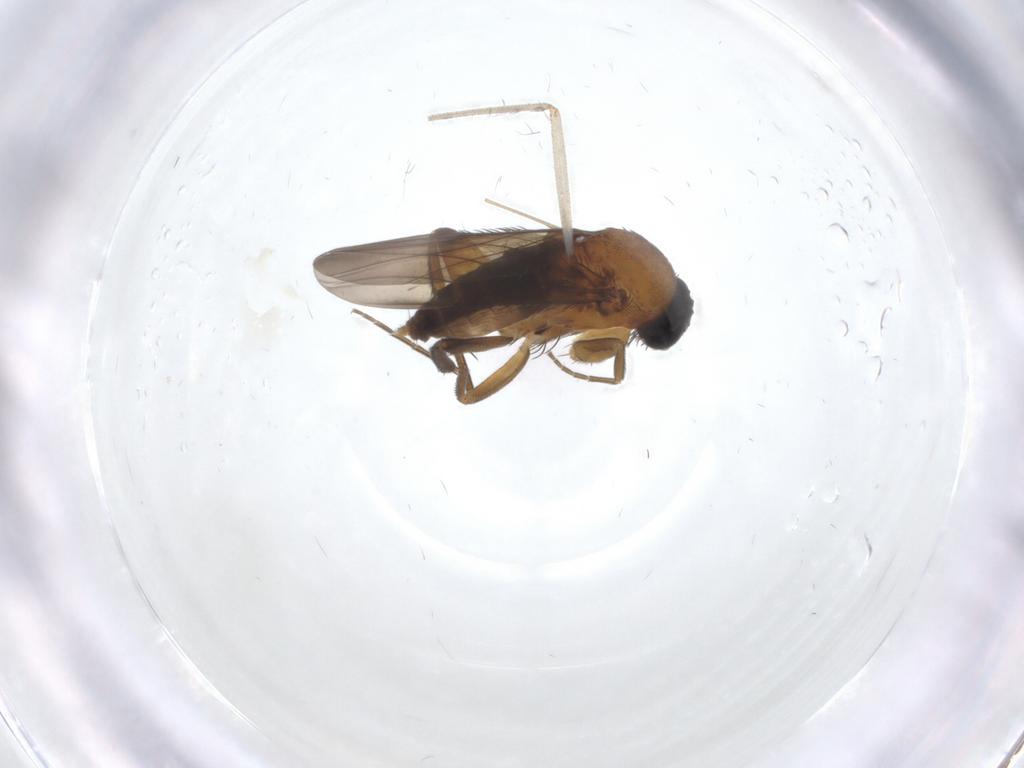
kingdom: Animalia
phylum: Arthropoda
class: Insecta
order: Diptera
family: Phoridae
